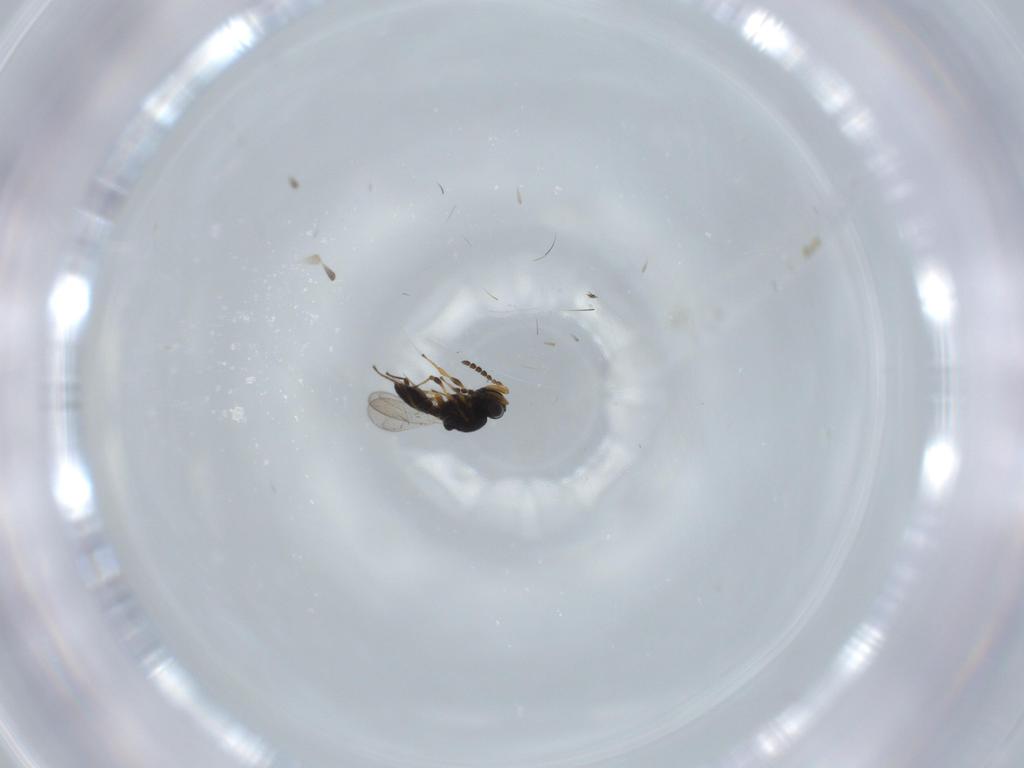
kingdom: Animalia
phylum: Arthropoda
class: Insecta
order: Hymenoptera
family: Platygastridae
